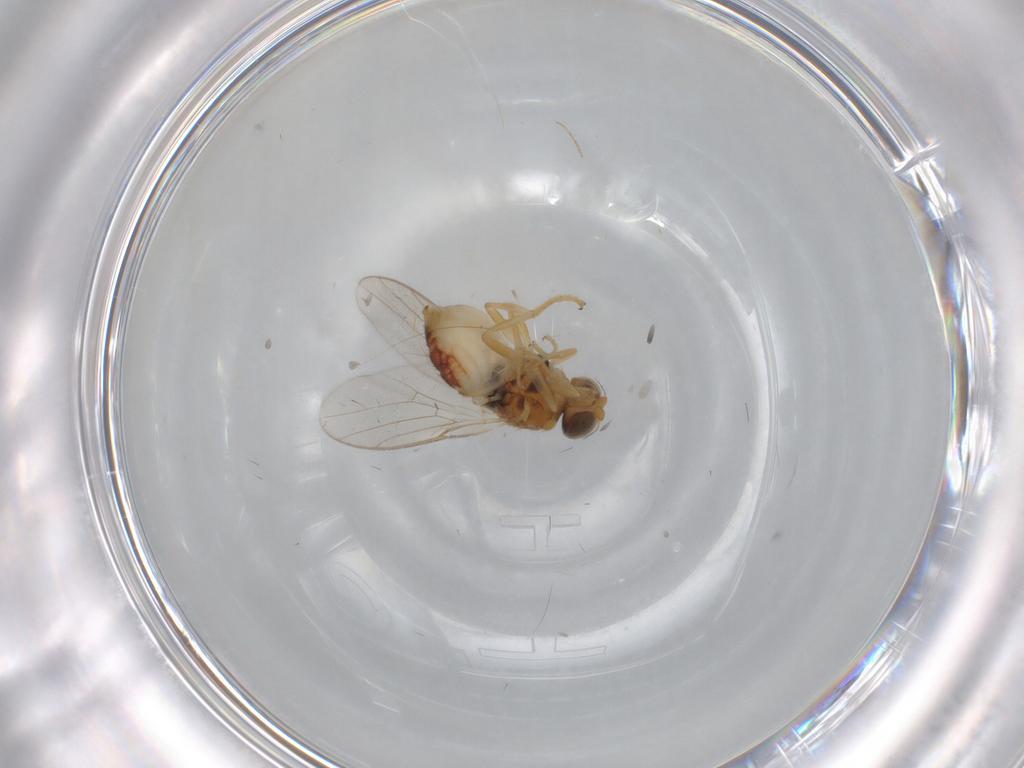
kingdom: Animalia
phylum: Arthropoda
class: Insecta
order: Diptera
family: Chloropidae
